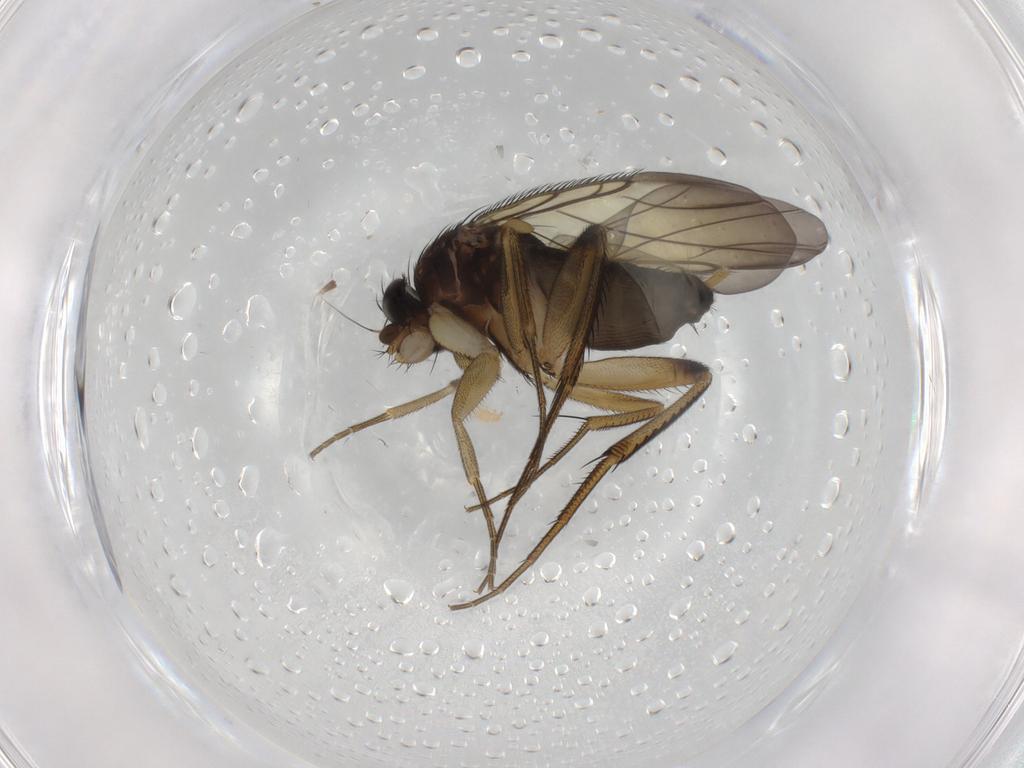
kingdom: Animalia
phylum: Arthropoda
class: Insecta
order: Diptera
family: Phoridae
